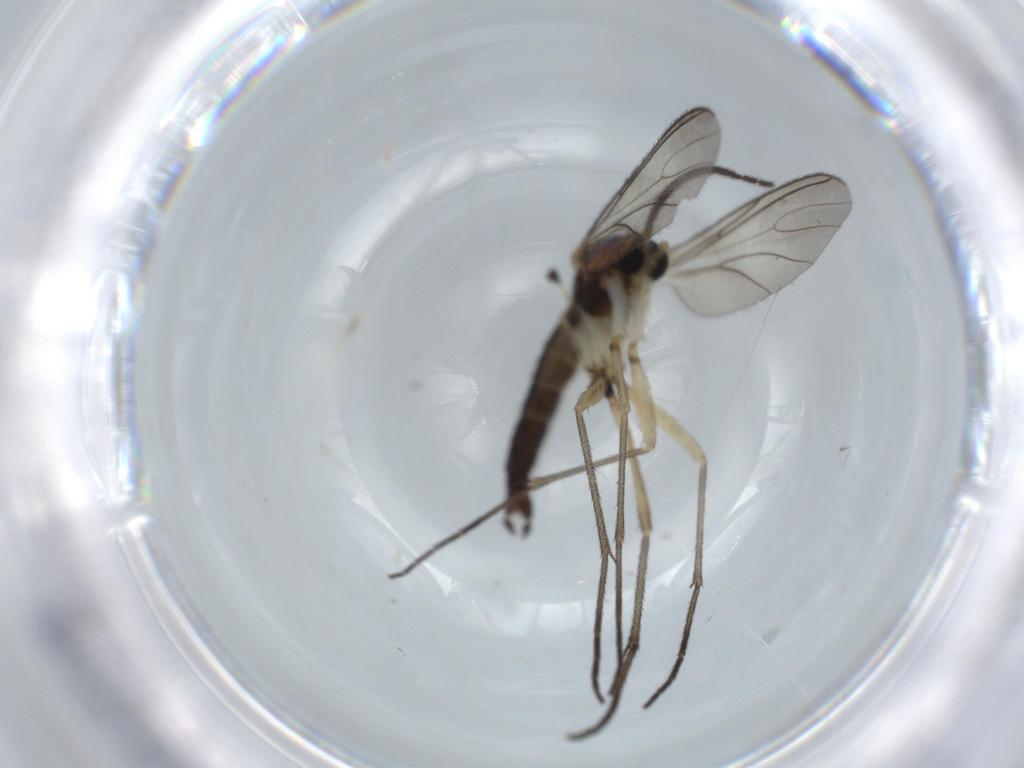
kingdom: Animalia
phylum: Arthropoda
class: Insecta
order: Diptera
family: Sciaridae
